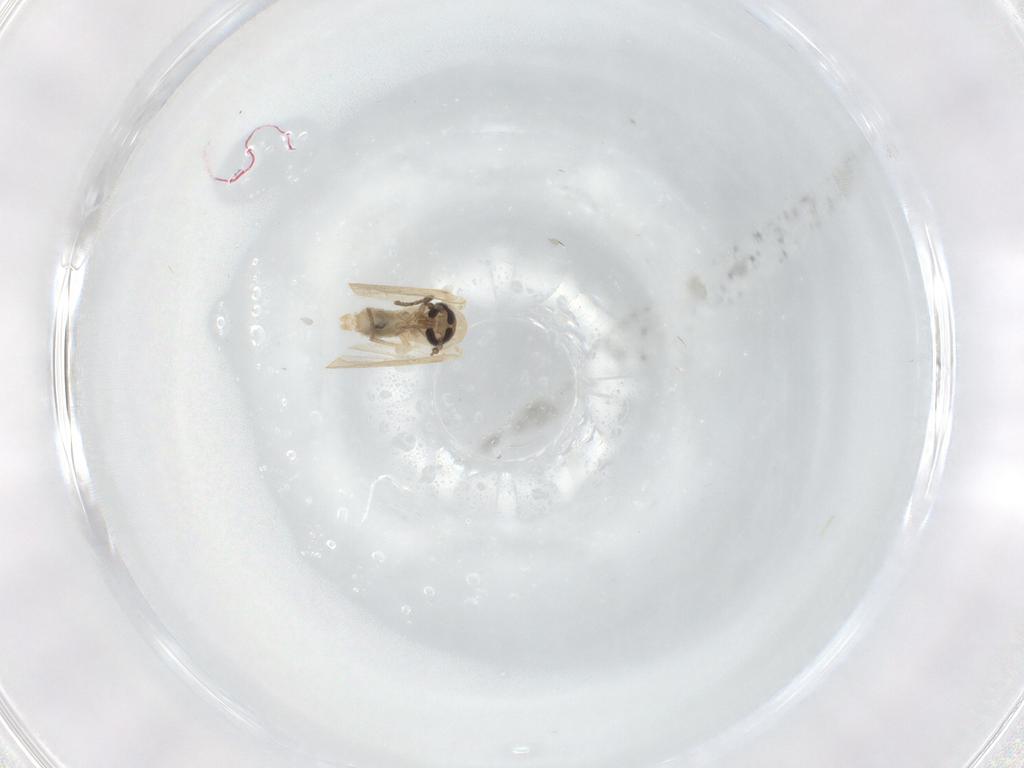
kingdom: Animalia
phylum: Arthropoda
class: Insecta
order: Diptera
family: Psychodidae
